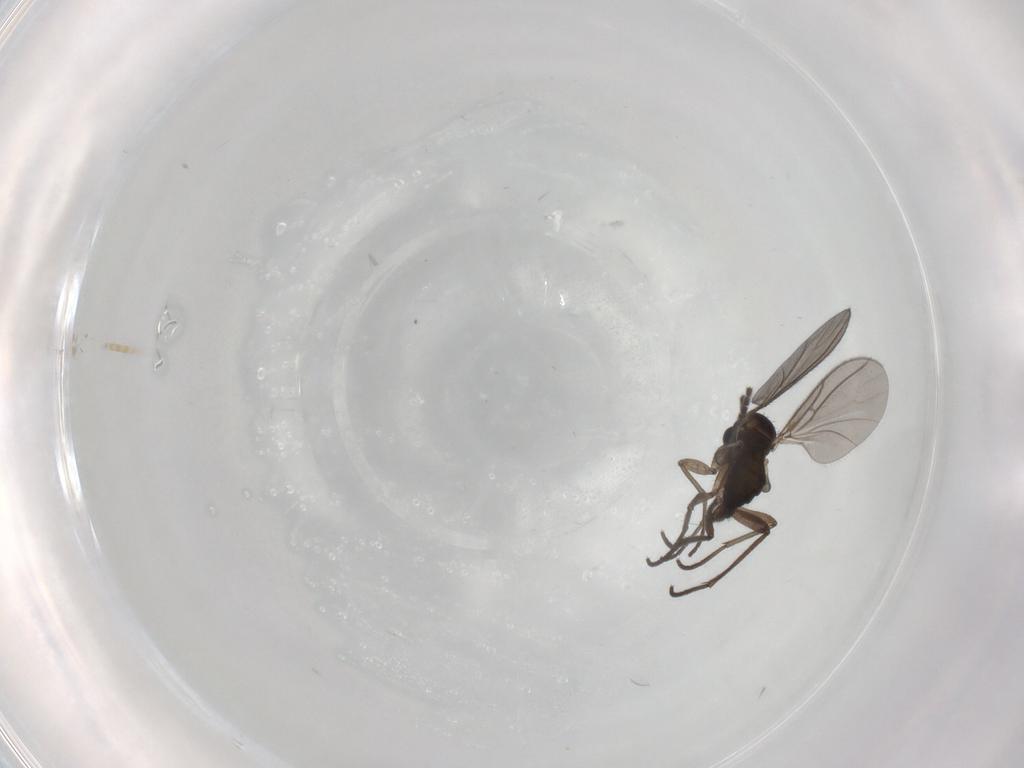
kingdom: Animalia
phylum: Arthropoda
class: Insecta
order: Diptera
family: Sciaridae
